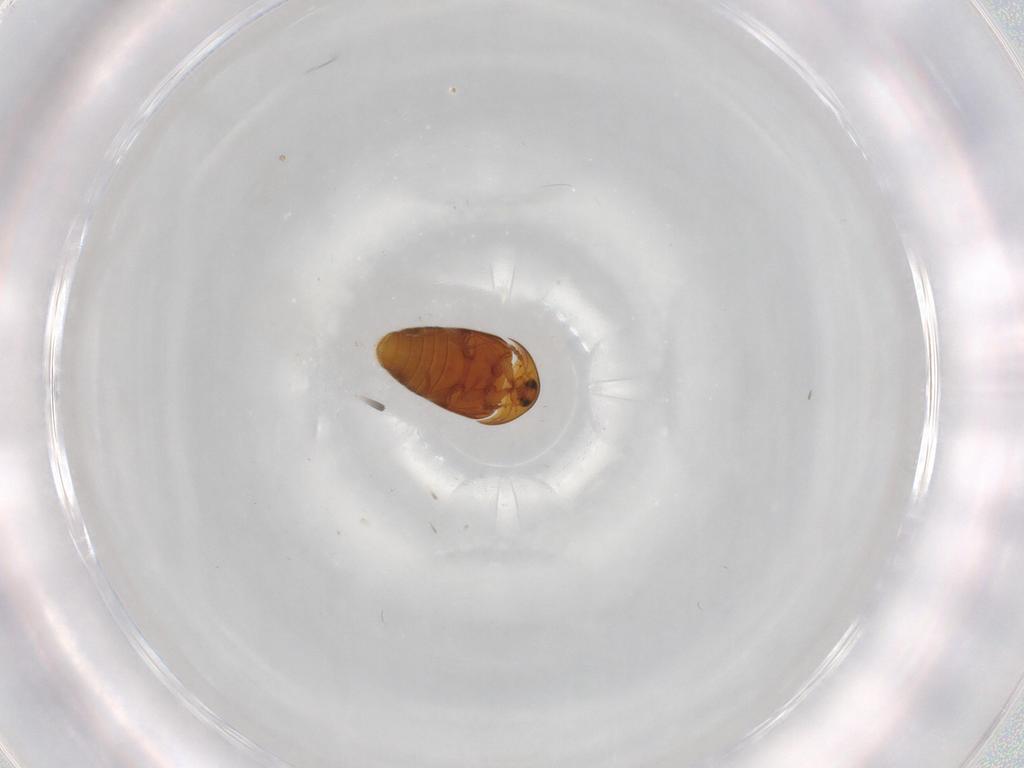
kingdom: Animalia
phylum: Arthropoda
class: Insecta
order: Coleoptera
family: Corylophidae
